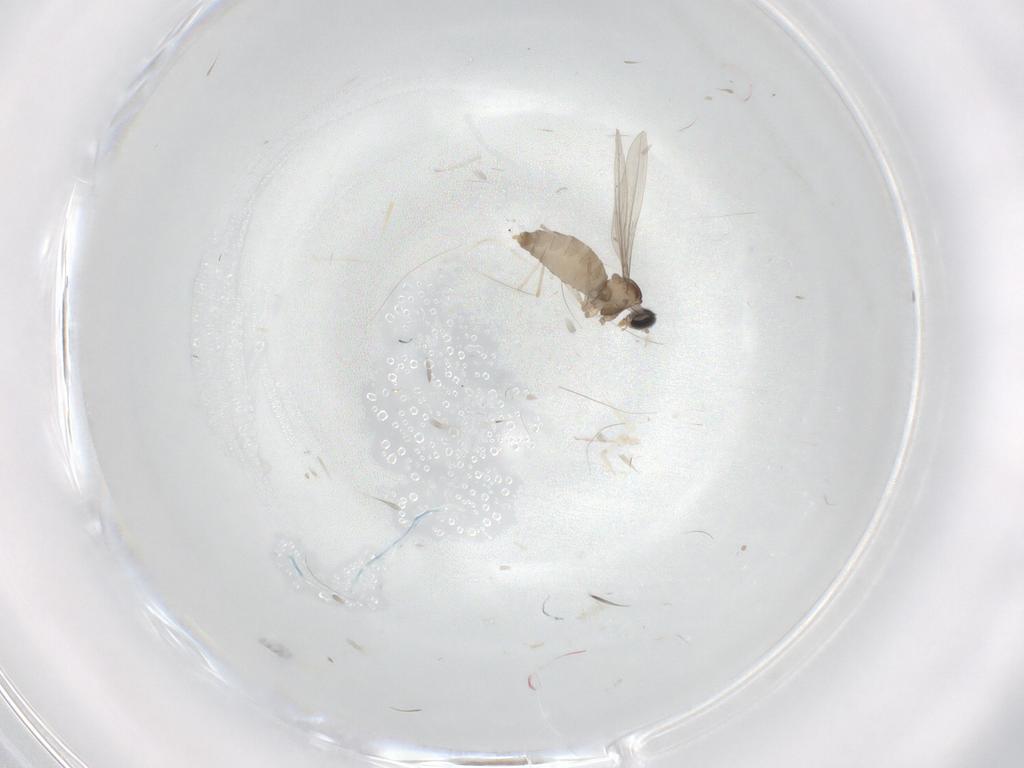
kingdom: Animalia
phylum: Arthropoda
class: Insecta
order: Diptera
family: Cecidomyiidae
